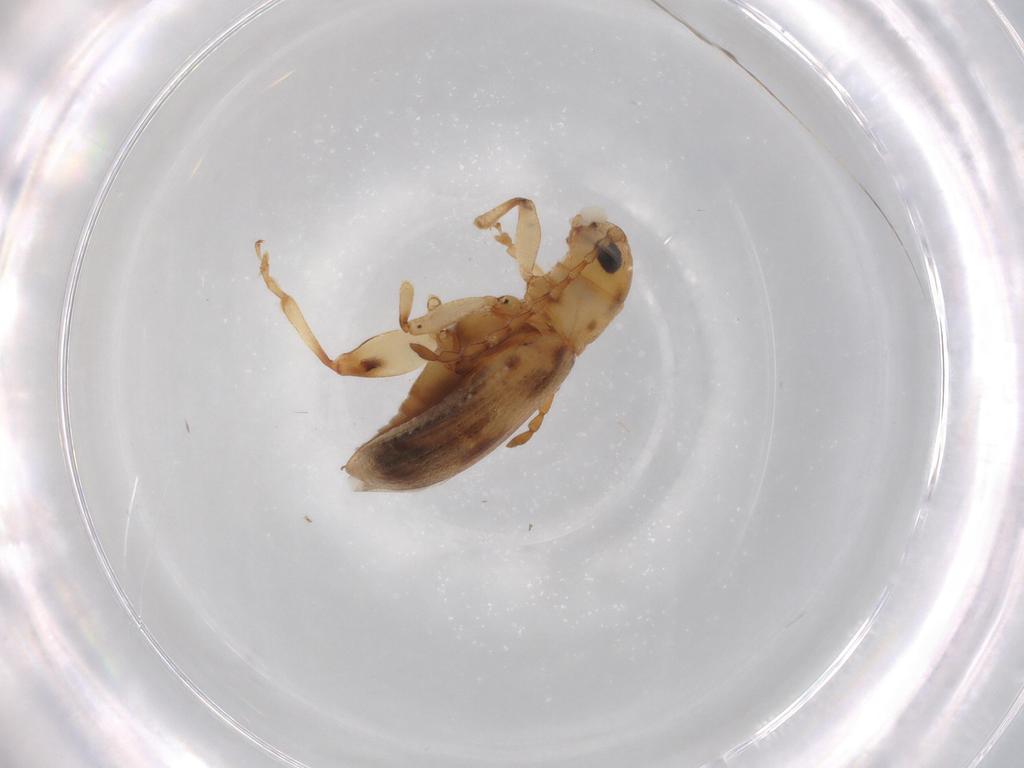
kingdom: Animalia
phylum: Arthropoda
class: Insecta
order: Coleoptera
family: Chrysomelidae
